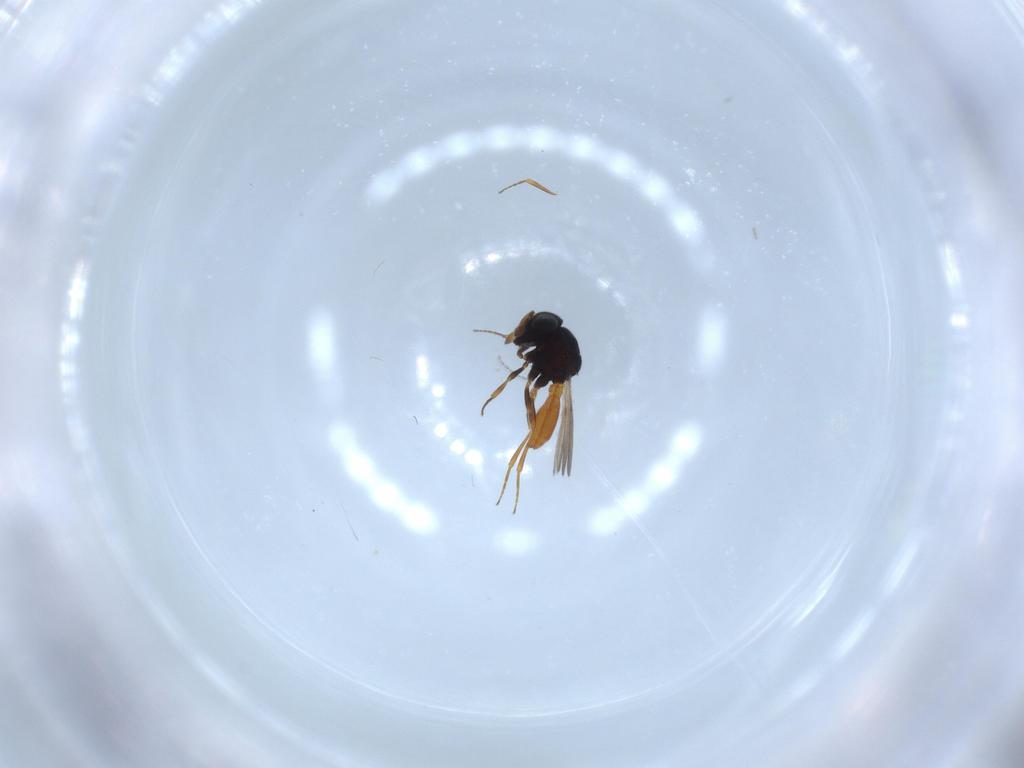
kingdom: Animalia
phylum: Arthropoda
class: Insecta
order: Hymenoptera
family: Scelionidae
